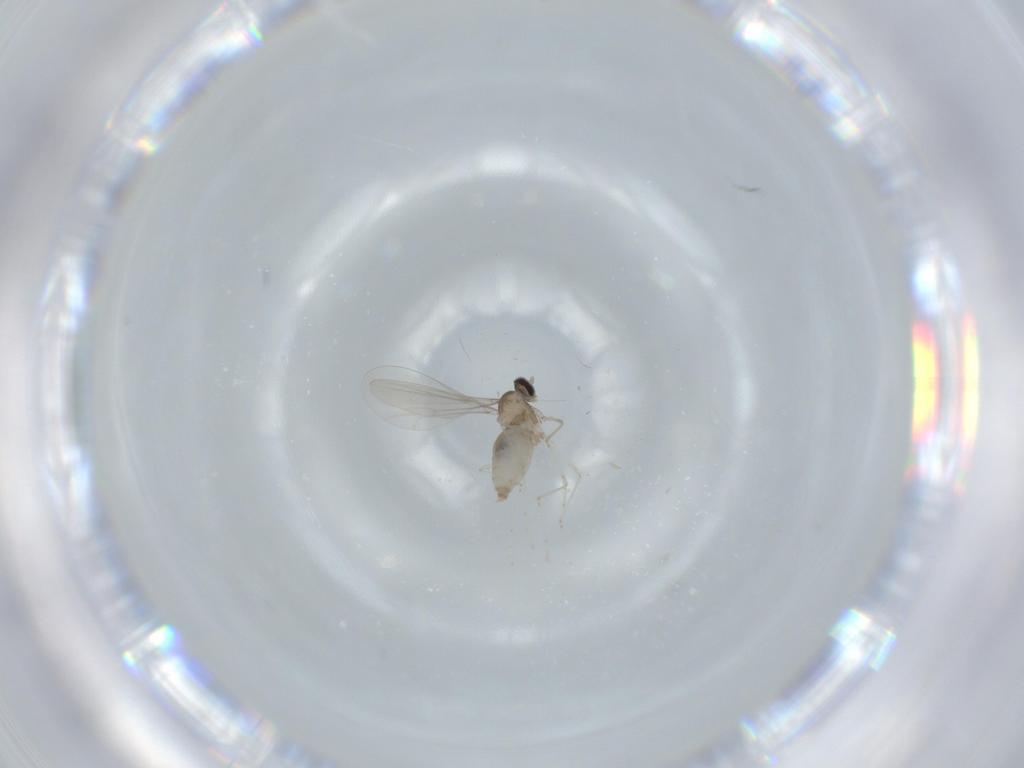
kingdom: Animalia
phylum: Arthropoda
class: Insecta
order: Diptera
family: Cecidomyiidae
